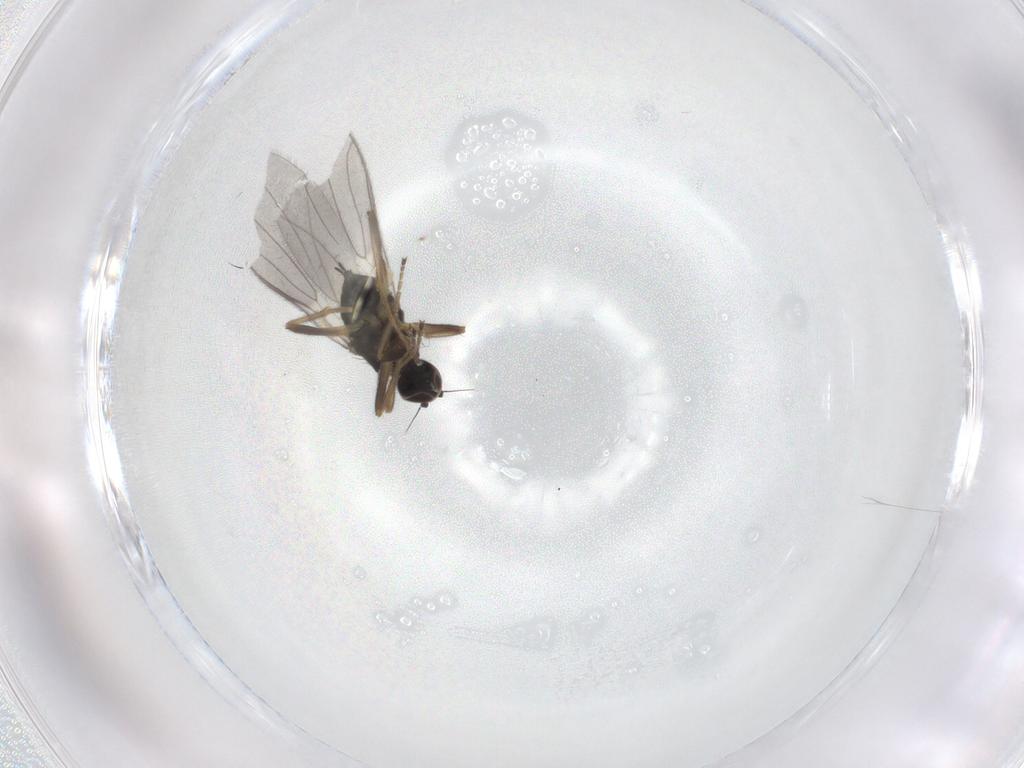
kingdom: Animalia
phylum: Arthropoda
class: Insecta
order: Diptera
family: Hybotidae
